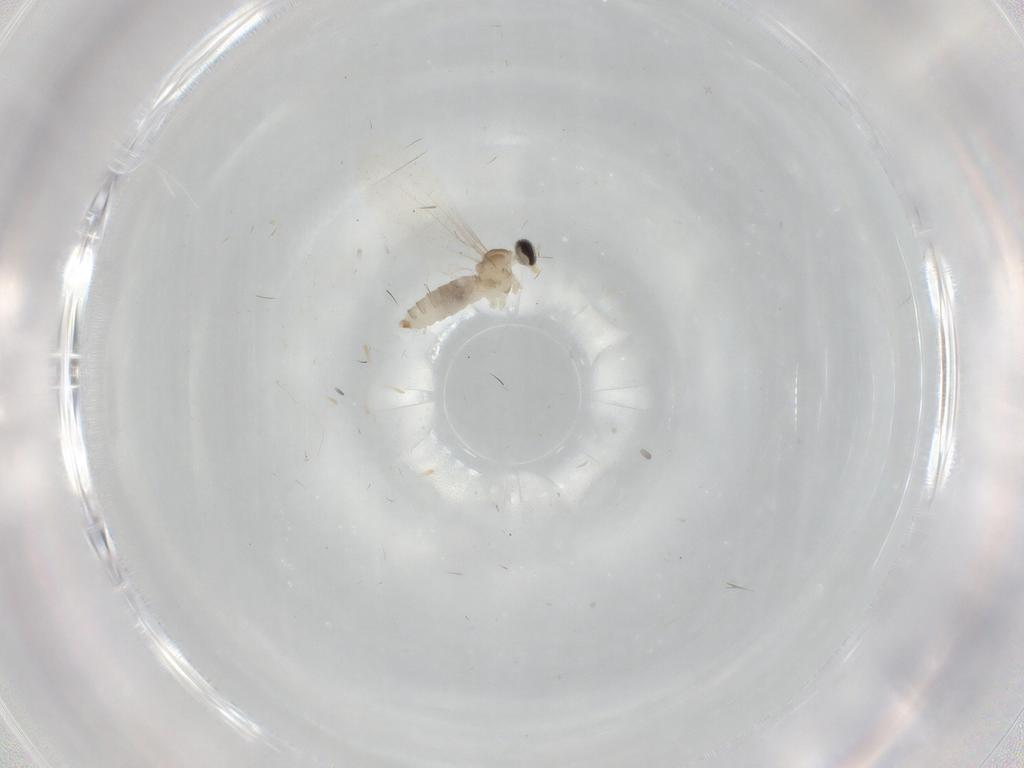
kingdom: Animalia
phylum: Arthropoda
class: Insecta
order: Diptera
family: Cecidomyiidae
